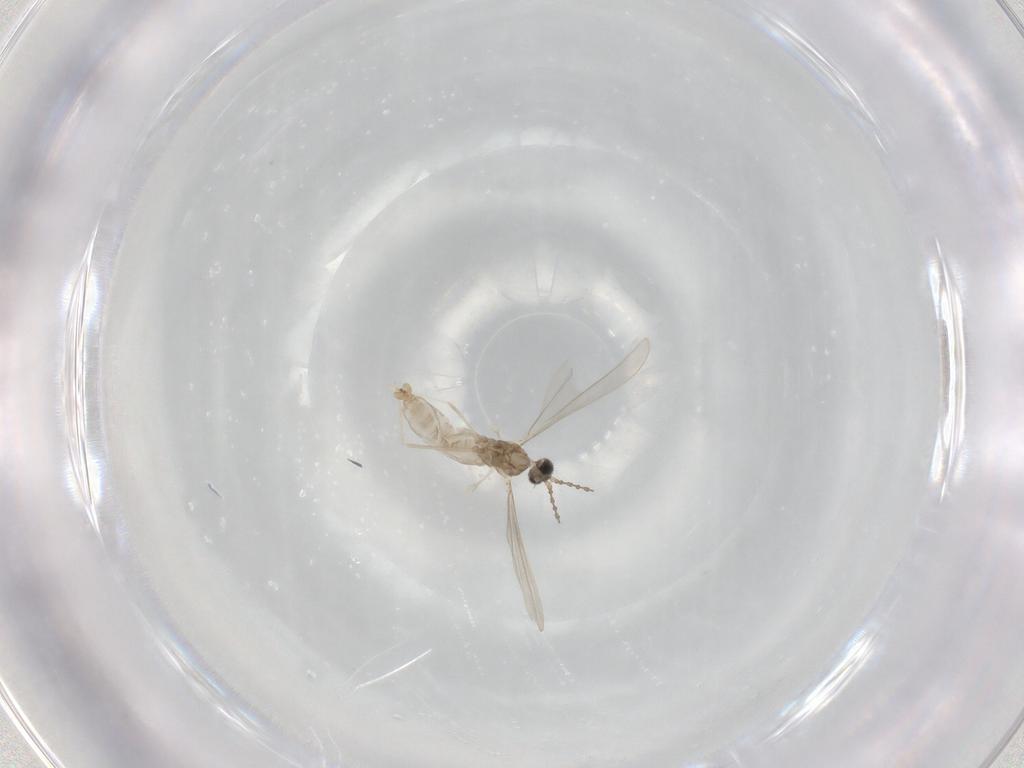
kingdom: Animalia
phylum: Arthropoda
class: Insecta
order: Diptera
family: Cecidomyiidae
